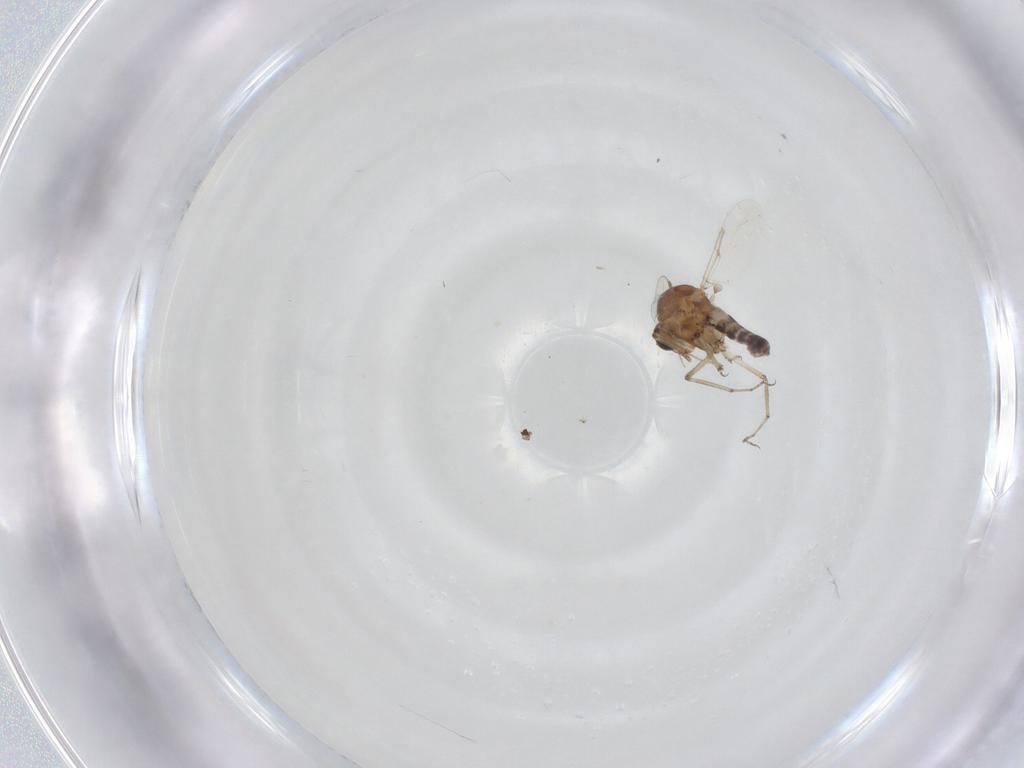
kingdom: Animalia
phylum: Arthropoda
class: Insecta
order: Diptera
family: Ceratopogonidae
